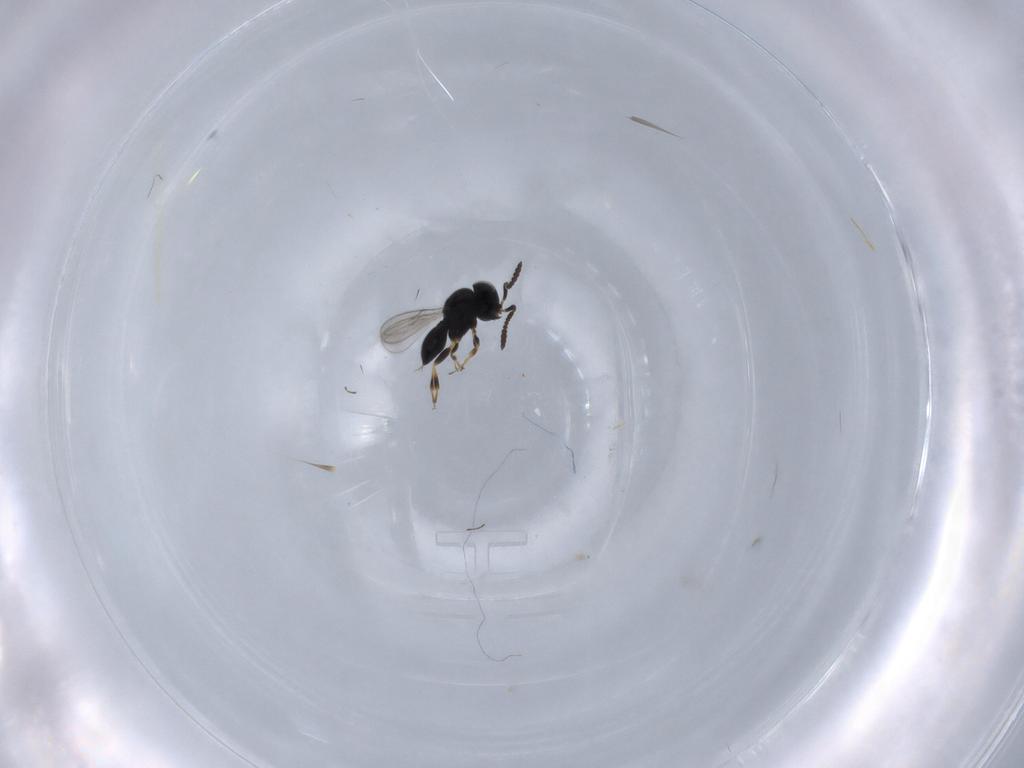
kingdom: Animalia
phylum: Arthropoda
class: Insecta
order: Hymenoptera
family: Scelionidae
